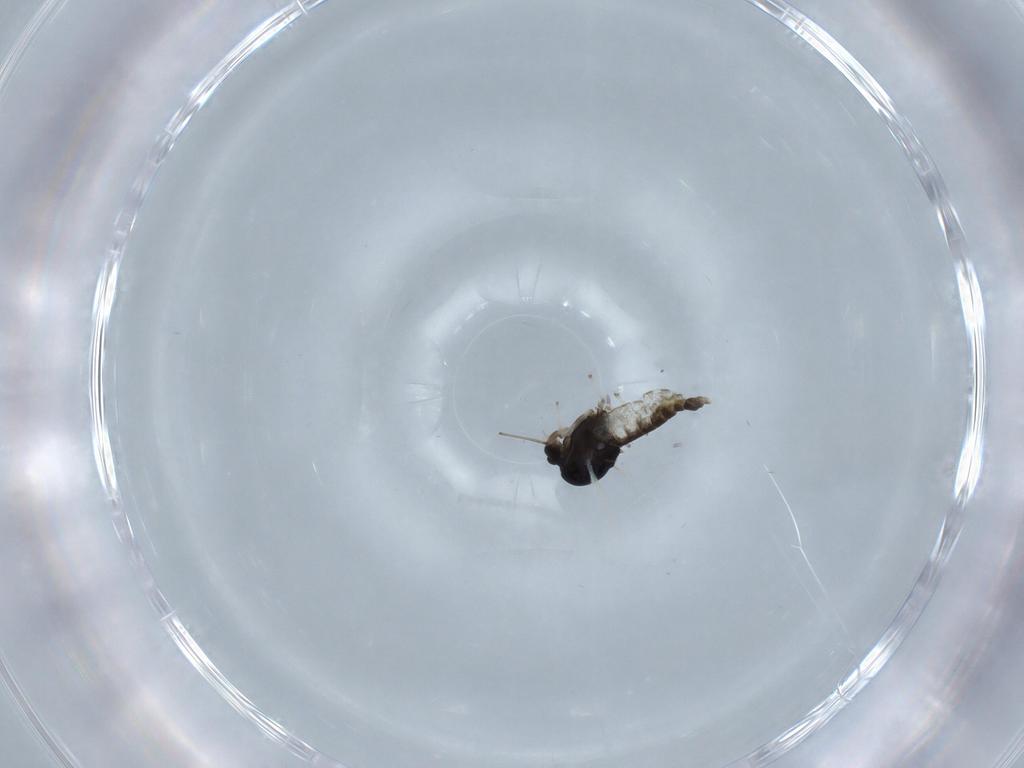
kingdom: Animalia
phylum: Arthropoda
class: Insecta
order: Diptera
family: Chironomidae
